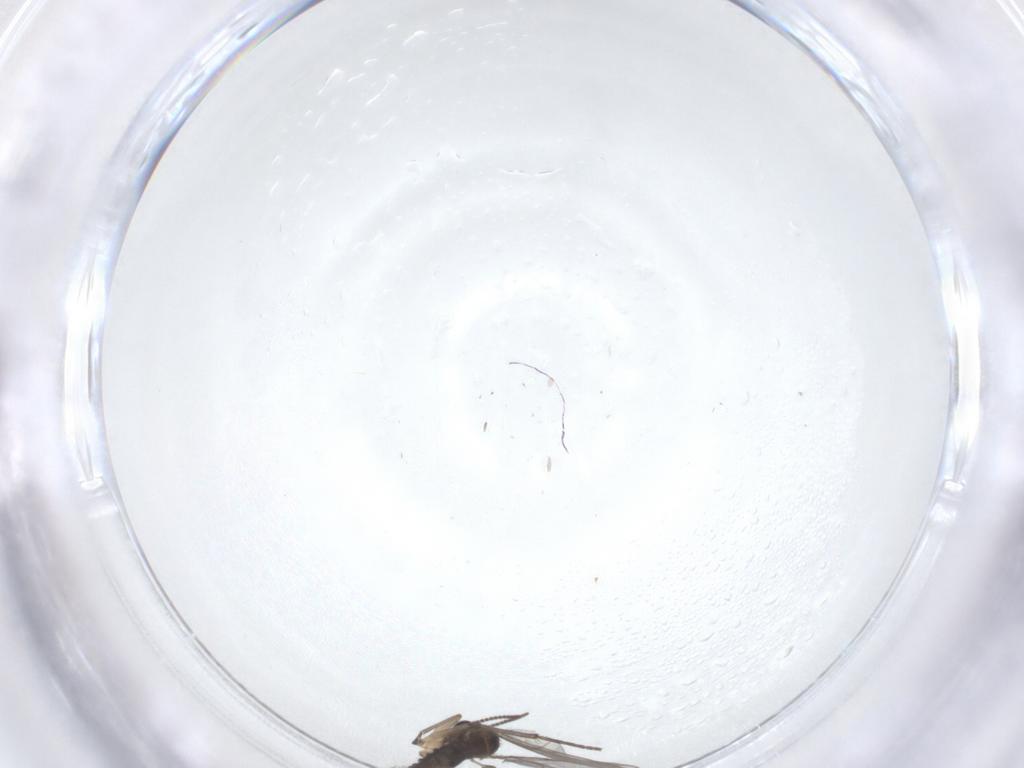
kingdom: Animalia
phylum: Arthropoda
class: Insecta
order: Diptera
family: Sciaridae
